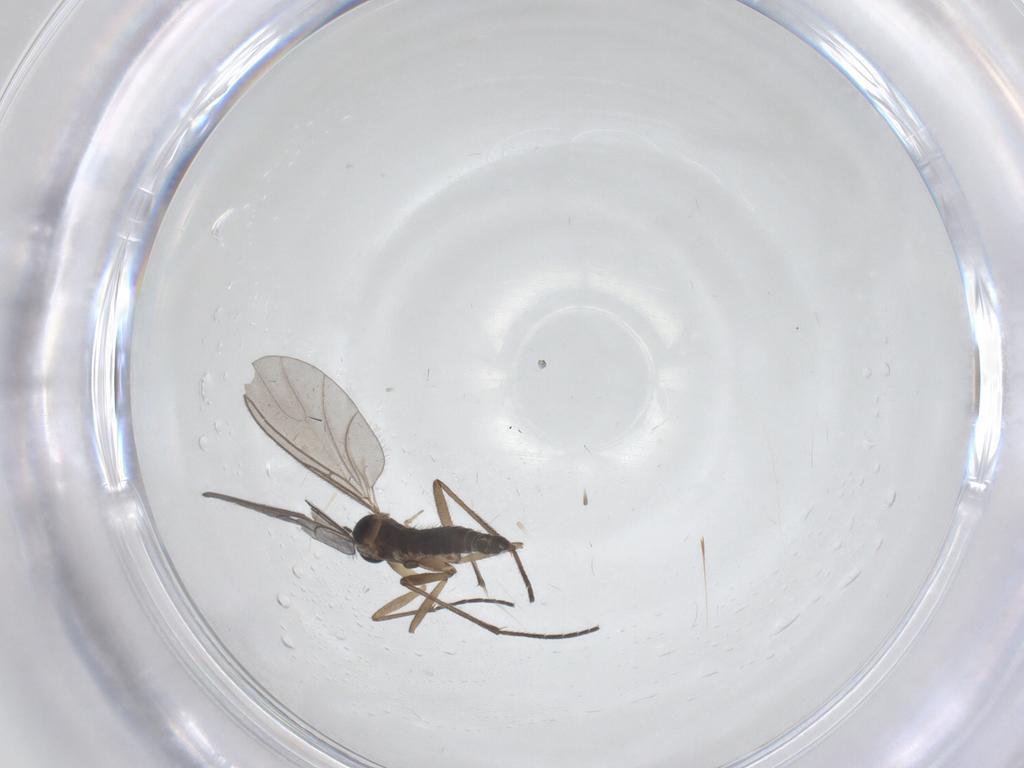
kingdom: Animalia
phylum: Arthropoda
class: Insecta
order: Diptera
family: Sciaridae
